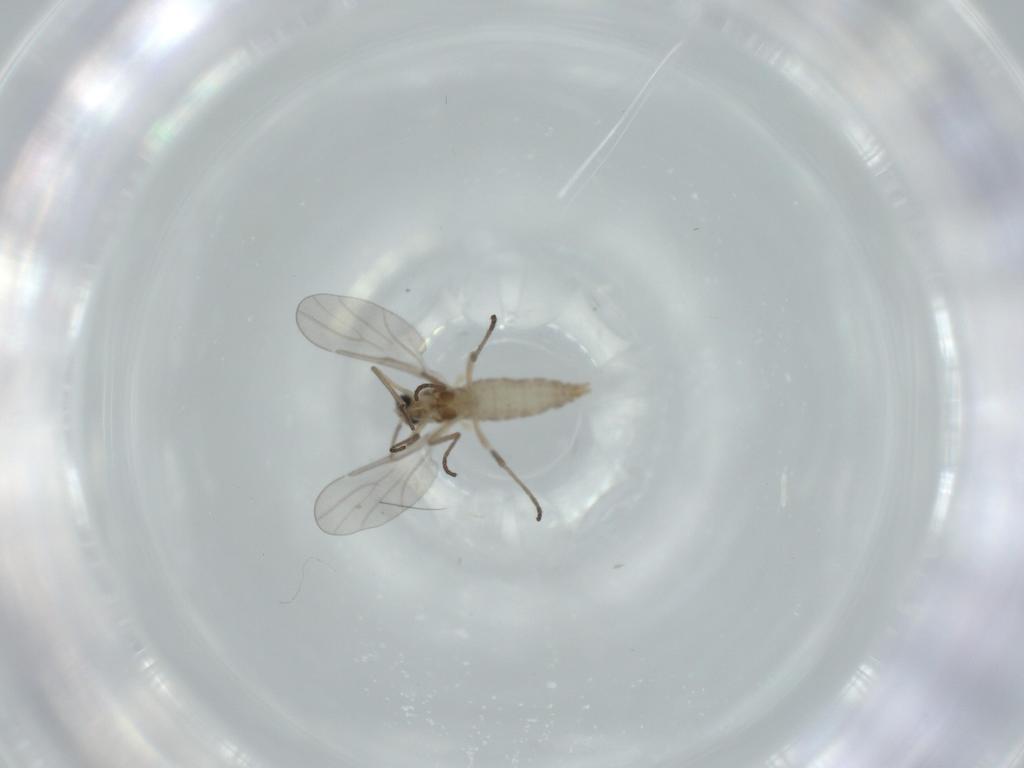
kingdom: Animalia
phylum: Arthropoda
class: Insecta
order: Diptera
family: Cecidomyiidae
